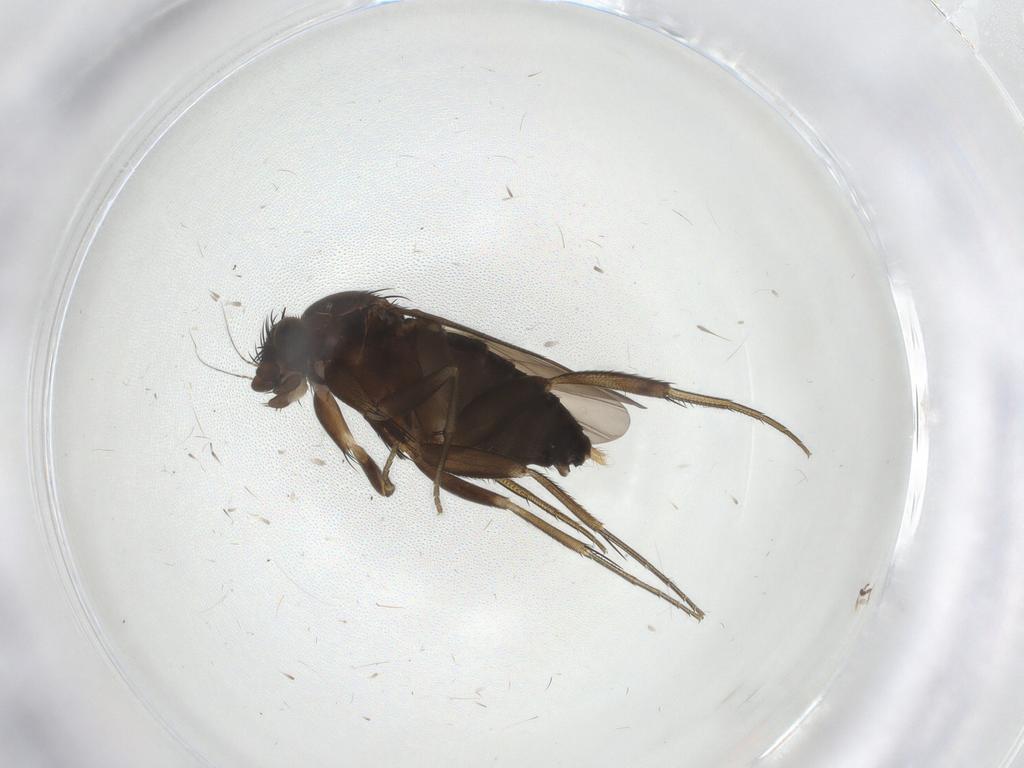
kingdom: Animalia
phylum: Arthropoda
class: Insecta
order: Diptera
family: Phoridae
